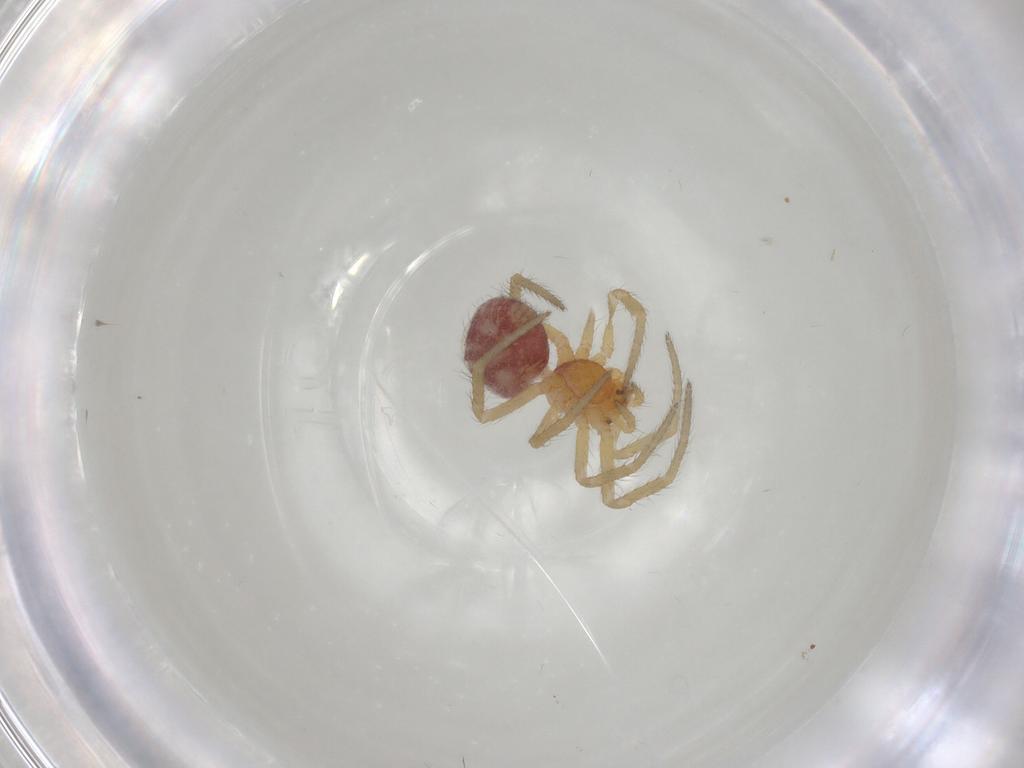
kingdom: Animalia
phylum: Arthropoda
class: Arachnida
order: Araneae
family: Theridiidae
